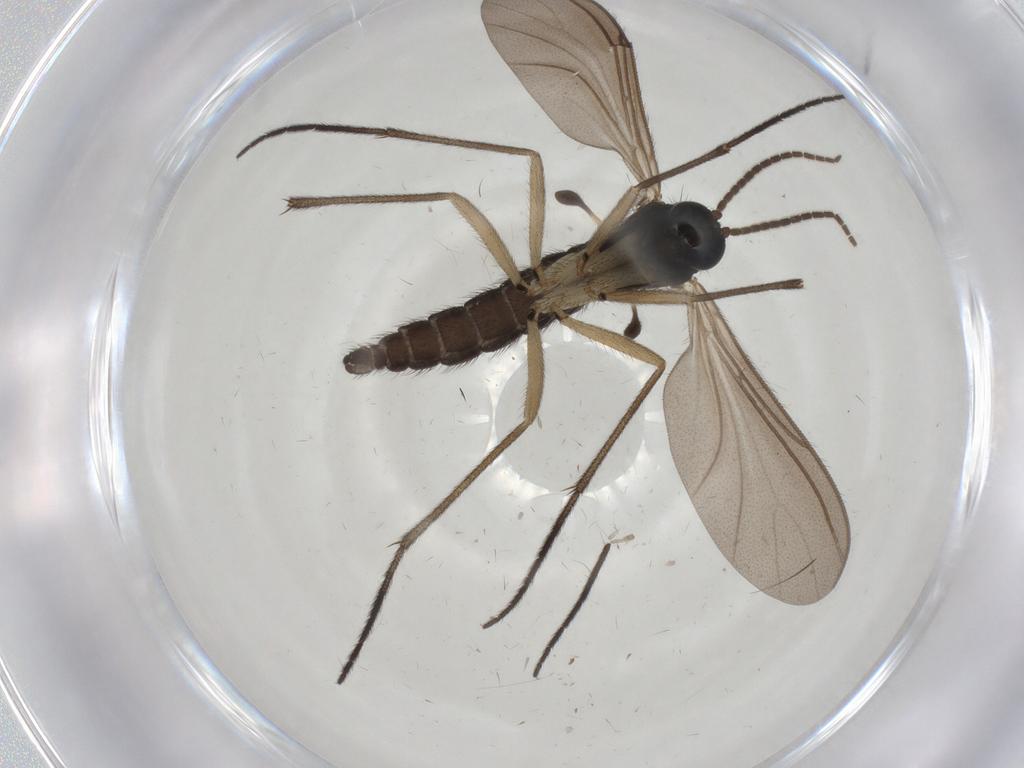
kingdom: Animalia
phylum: Arthropoda
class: Insecta
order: Diptera
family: Sciaridae
